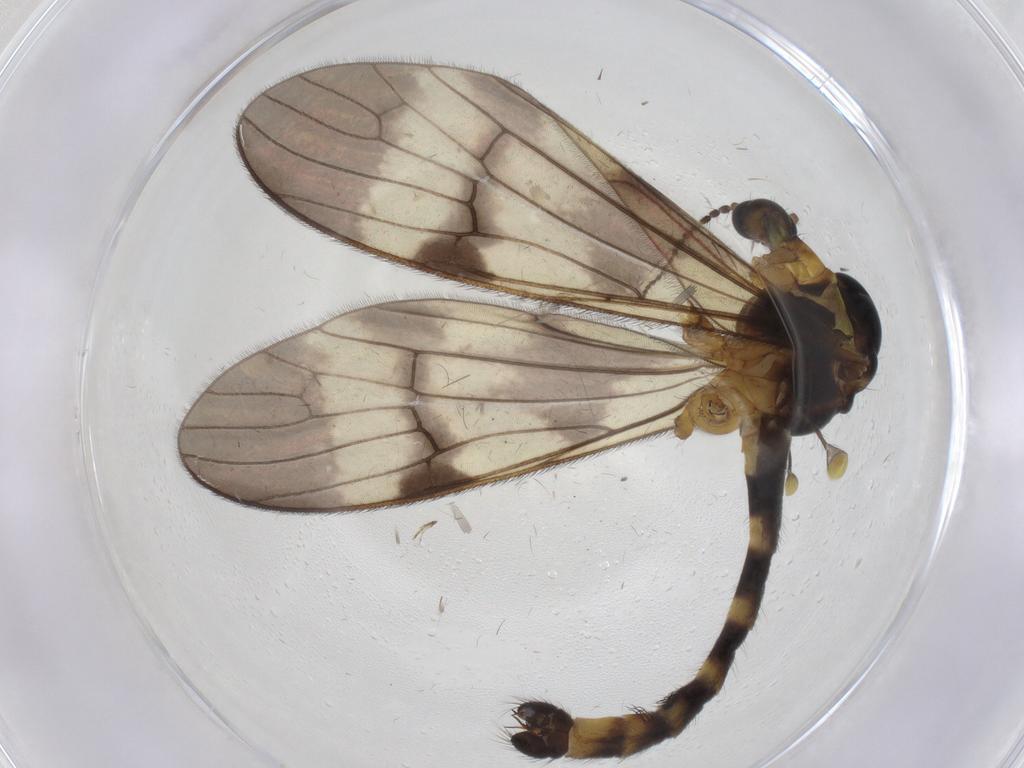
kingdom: Animalia
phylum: Arthropoda
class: Insecta
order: Diptera
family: Limoniidae
